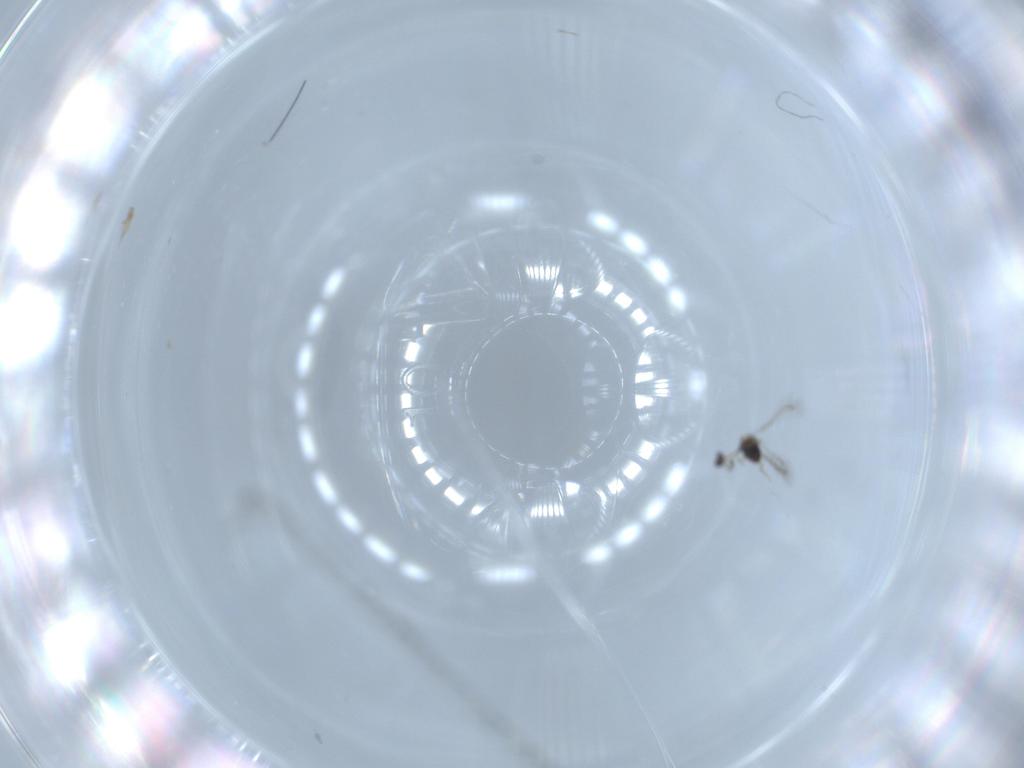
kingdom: Animalia
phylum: Arthropoda
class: Insecta
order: Hymenoptera
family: Mymaridae
